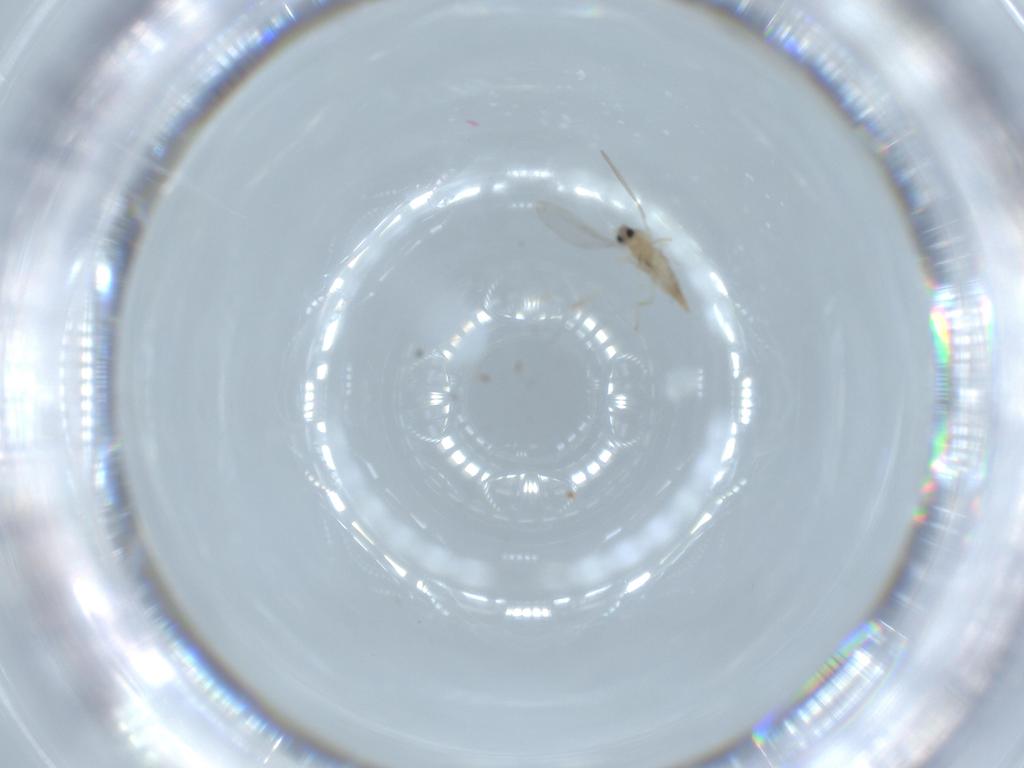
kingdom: Animalia
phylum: Arthropoda
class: Insecta
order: Diptera
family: Cecidomyiidae
